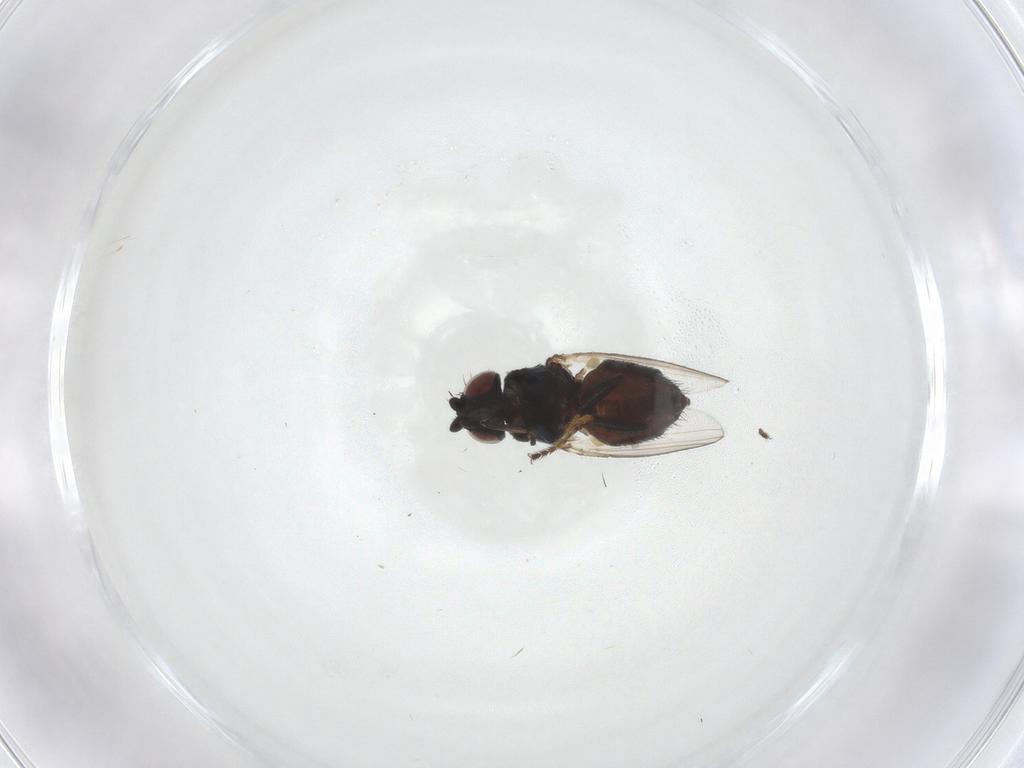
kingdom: Animalia
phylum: Arthropoda
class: Insecta
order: Diptera
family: Milichiidae
